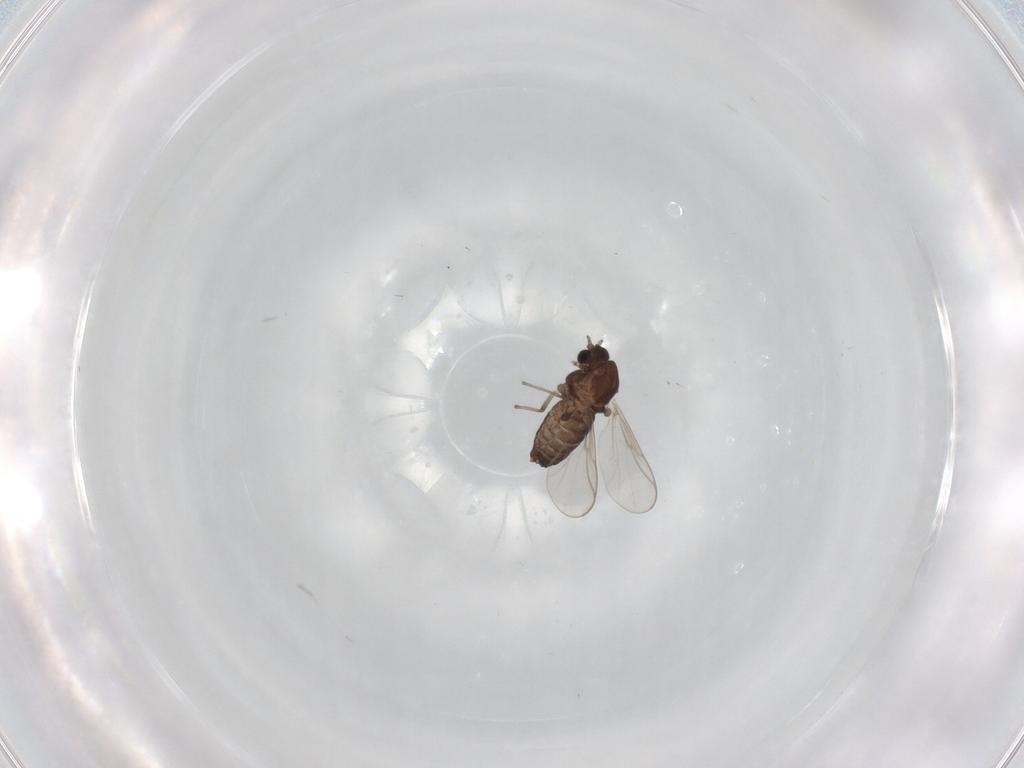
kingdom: Animalia
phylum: Arthropoda
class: Insecta
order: Diptera
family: Chironomidae
